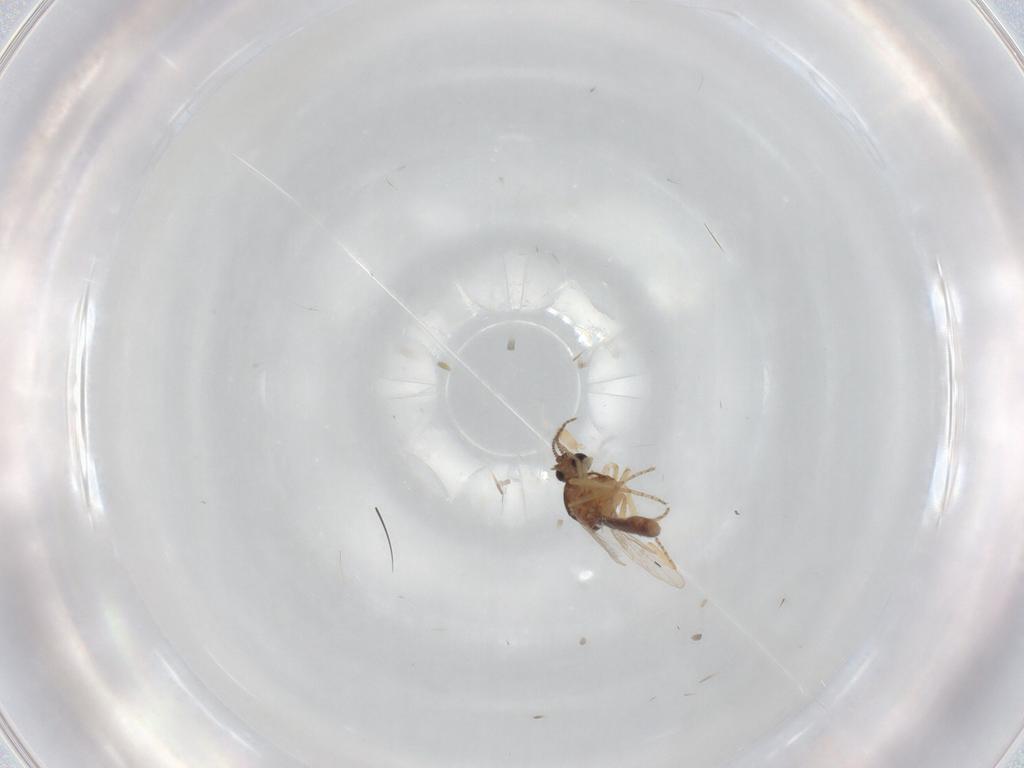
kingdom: Animalia
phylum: Arthropoda
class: Insecta
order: Diptera
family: Ceratopogonidae
